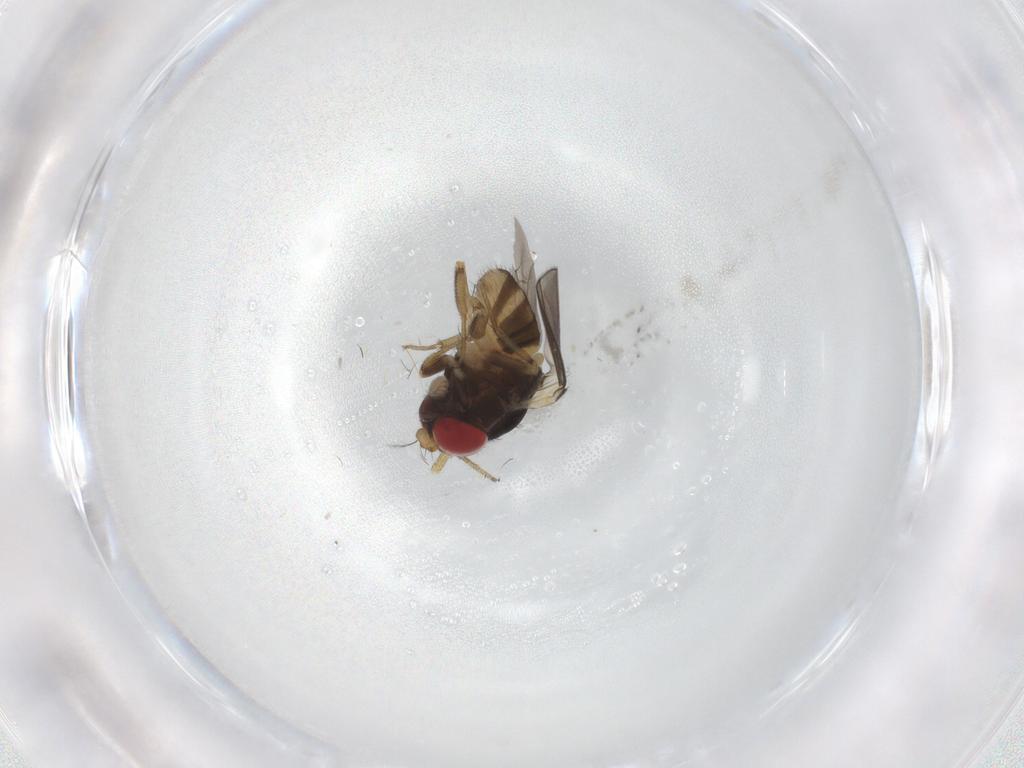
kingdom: Animalia
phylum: Arthropoda
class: Insecta
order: Diptera
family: Drosophilidae
